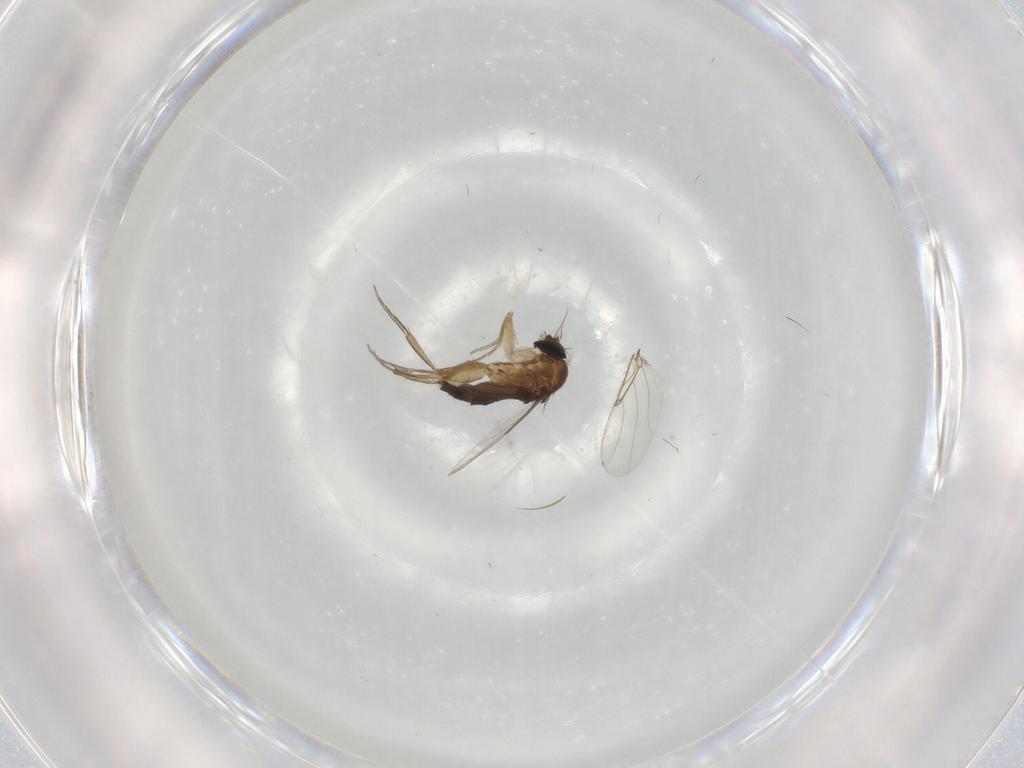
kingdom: Animalia
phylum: Arthropoda
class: Insecta
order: Diptera
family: Phoridae
